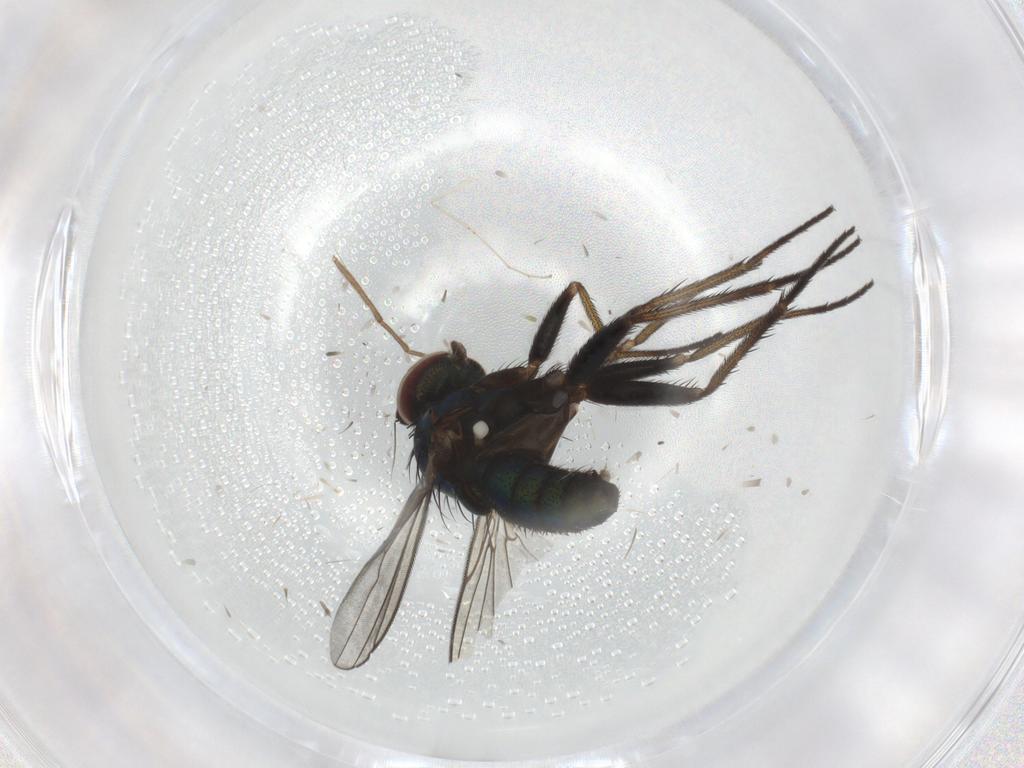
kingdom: Animalia
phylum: Arthropoda
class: Insecta
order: Diptera
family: Dolichopodidae
